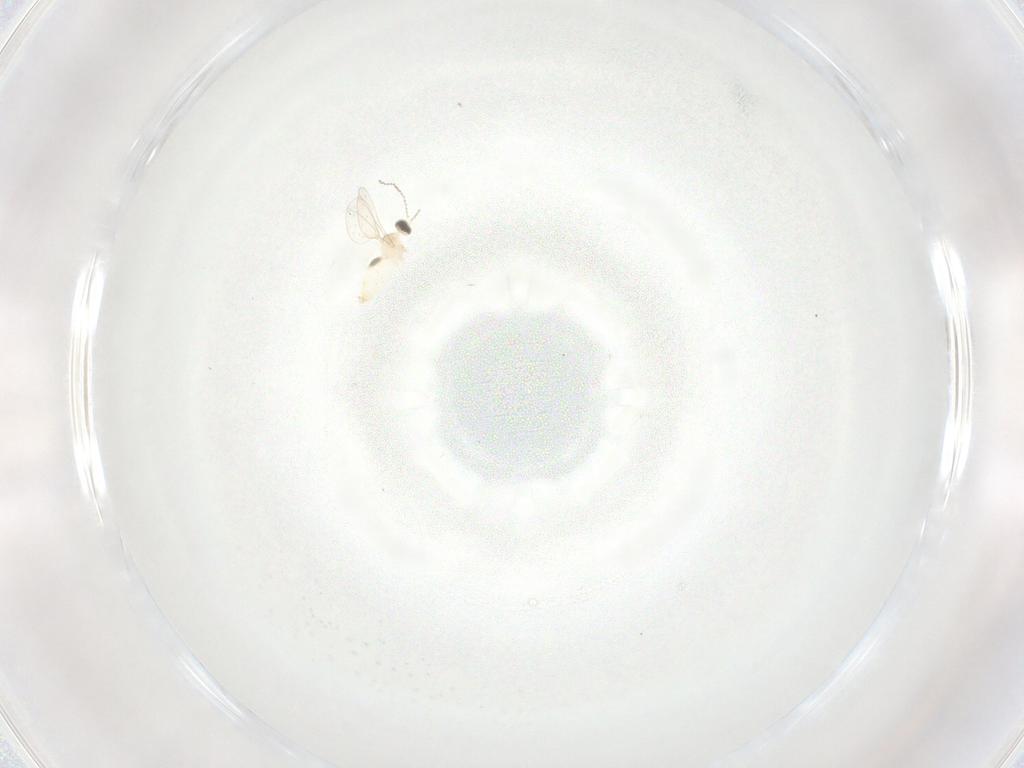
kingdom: Animalia
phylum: Arthropoda
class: Insecta
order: Diptera
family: Cecidomyiidae
